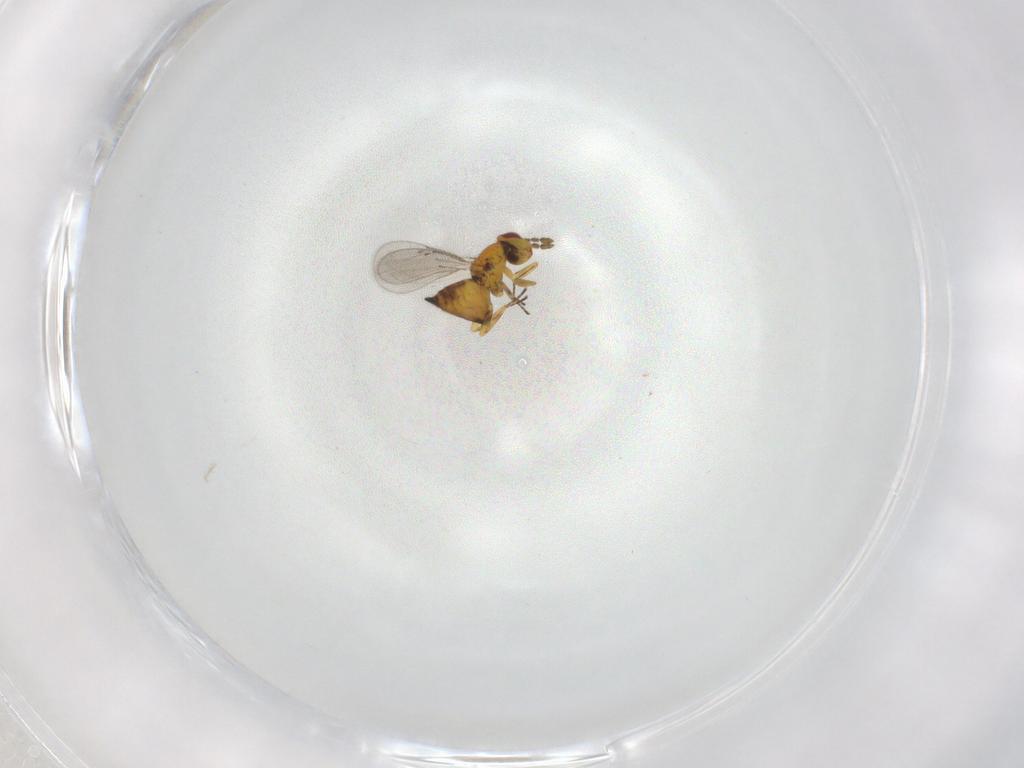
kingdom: Animalia
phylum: Arthropoda
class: Insecta
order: Hymenoptera
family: Eulophidae
